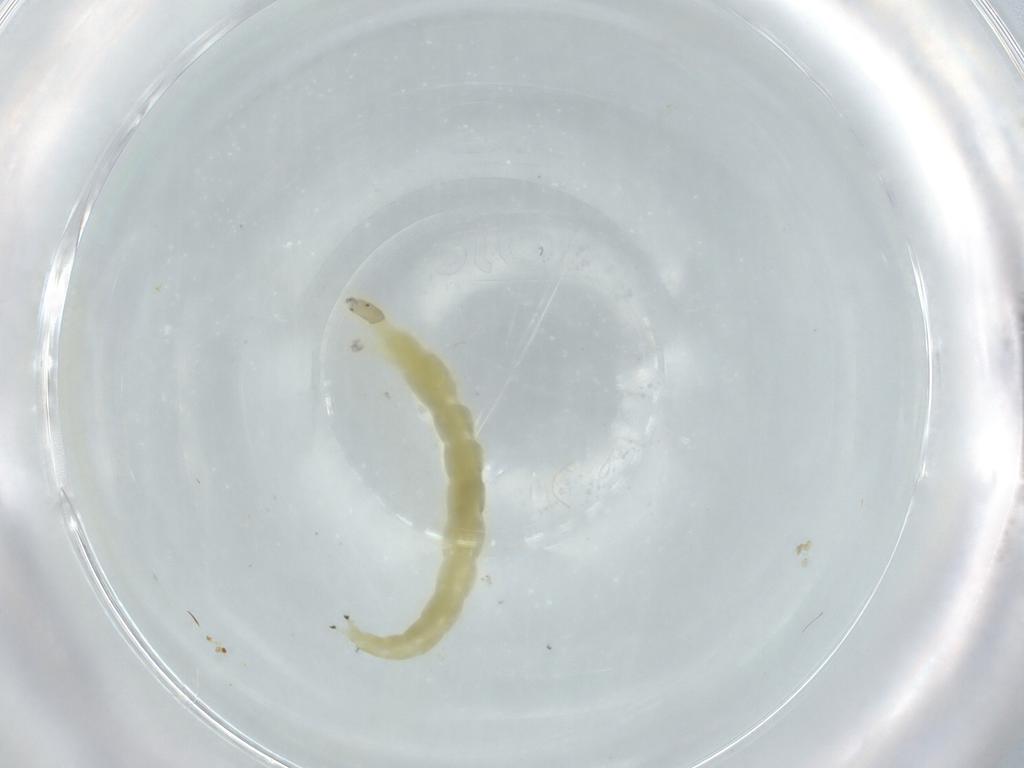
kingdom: Animalia
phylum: Arthropoda
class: Insecta
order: Diptera
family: Chironomidae
